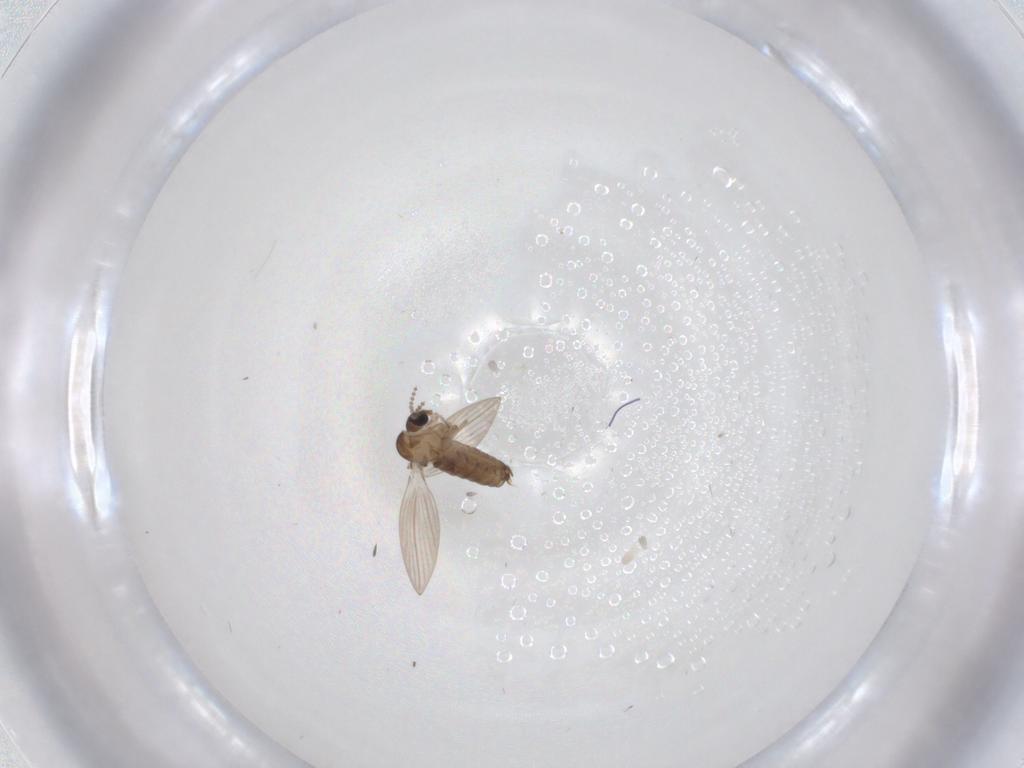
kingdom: Animalia
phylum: Arthropoda
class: Insecta
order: Diptera
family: Psychodidae
